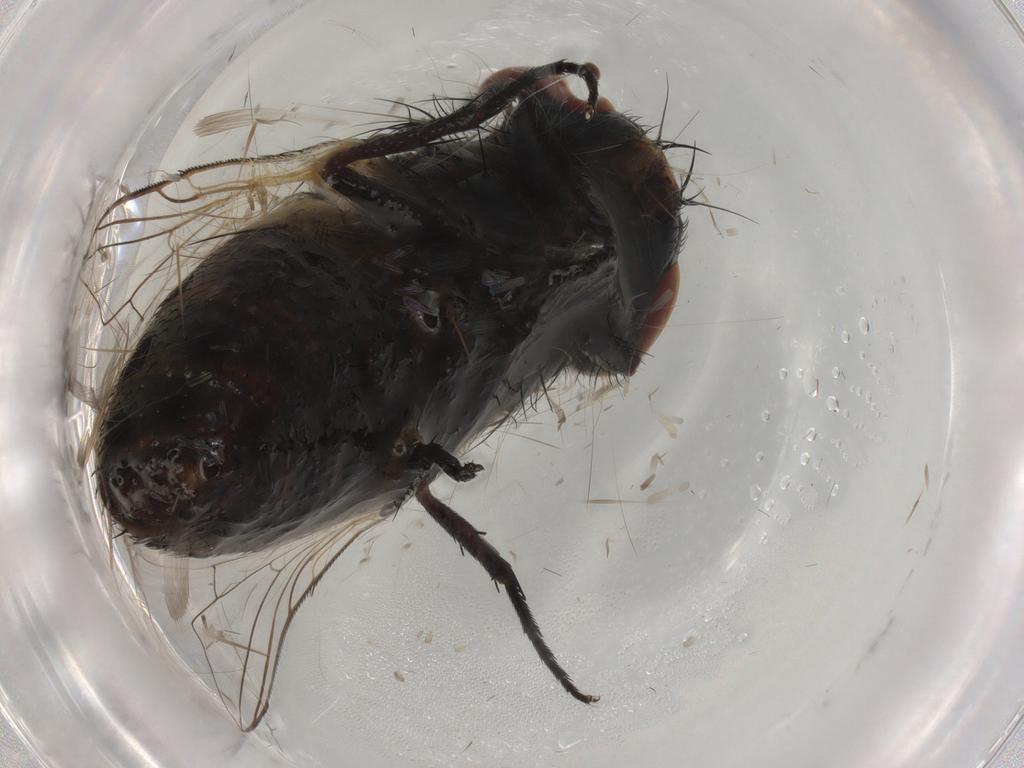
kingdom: Animalia
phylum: Arthropoda
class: Insecta
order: Diptera
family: Sarcophagidae
